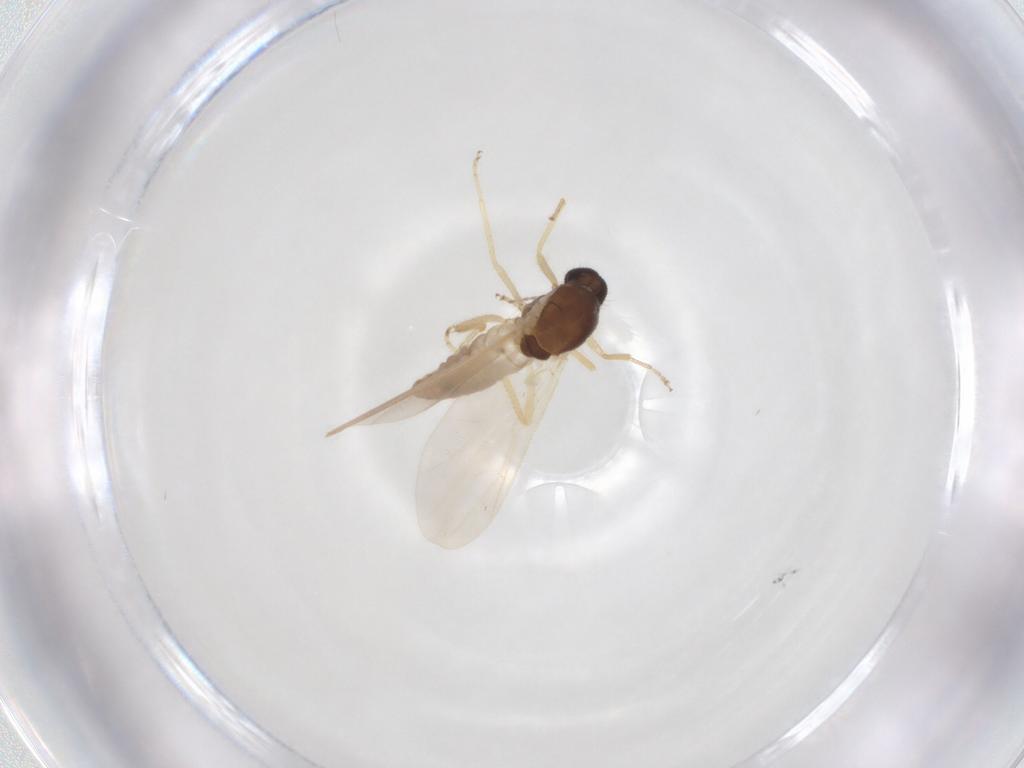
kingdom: Animalia
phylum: Arthropoda
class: Insecta
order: Diptera
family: Ceratopogonidae
